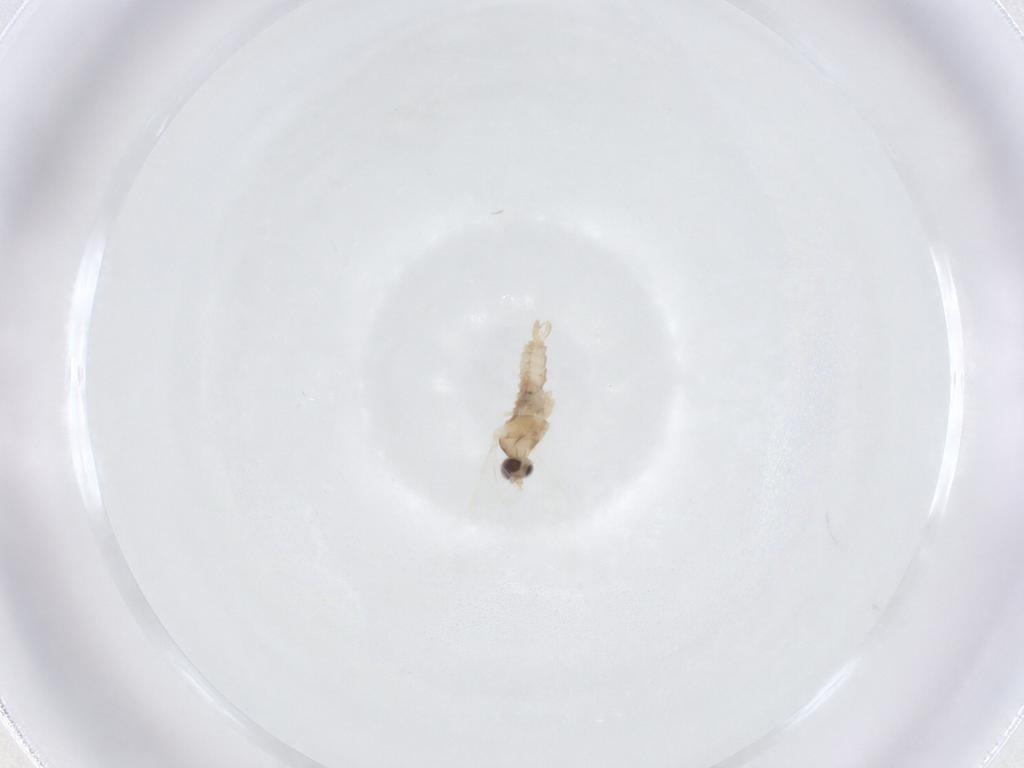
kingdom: Animalia
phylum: Arthropoda
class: Insecta
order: Diptera
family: Cecidomyiidae
